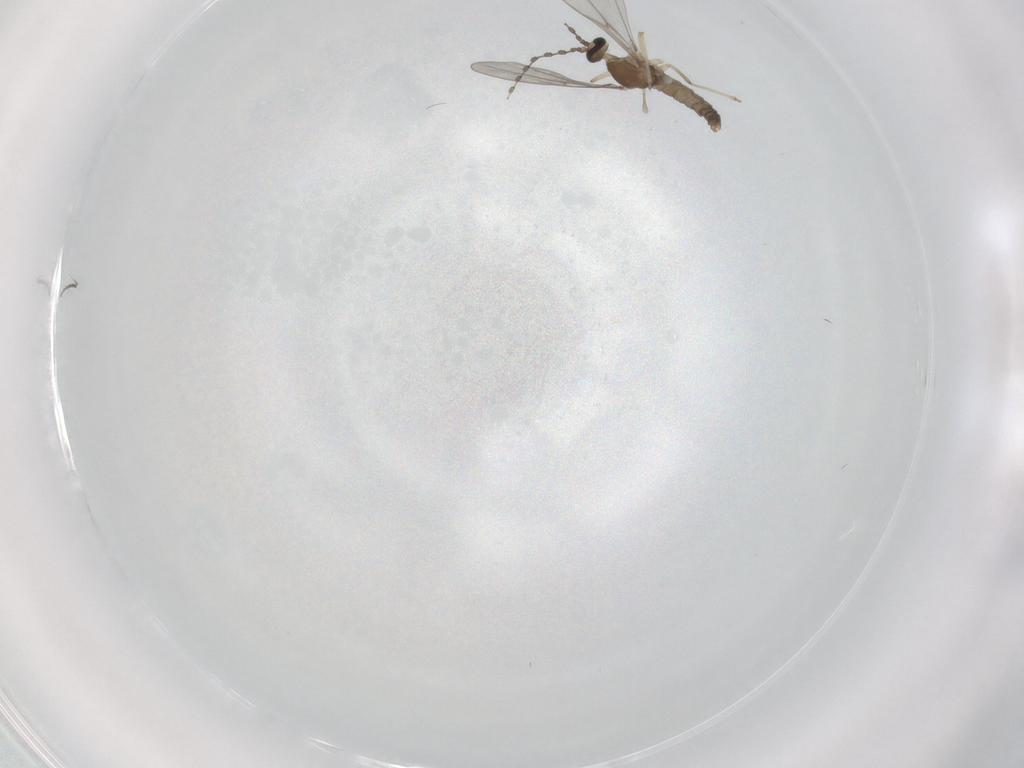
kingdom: Animalia
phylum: Arthropoda
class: Insecta
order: Diptera
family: Cecidomyiidae
